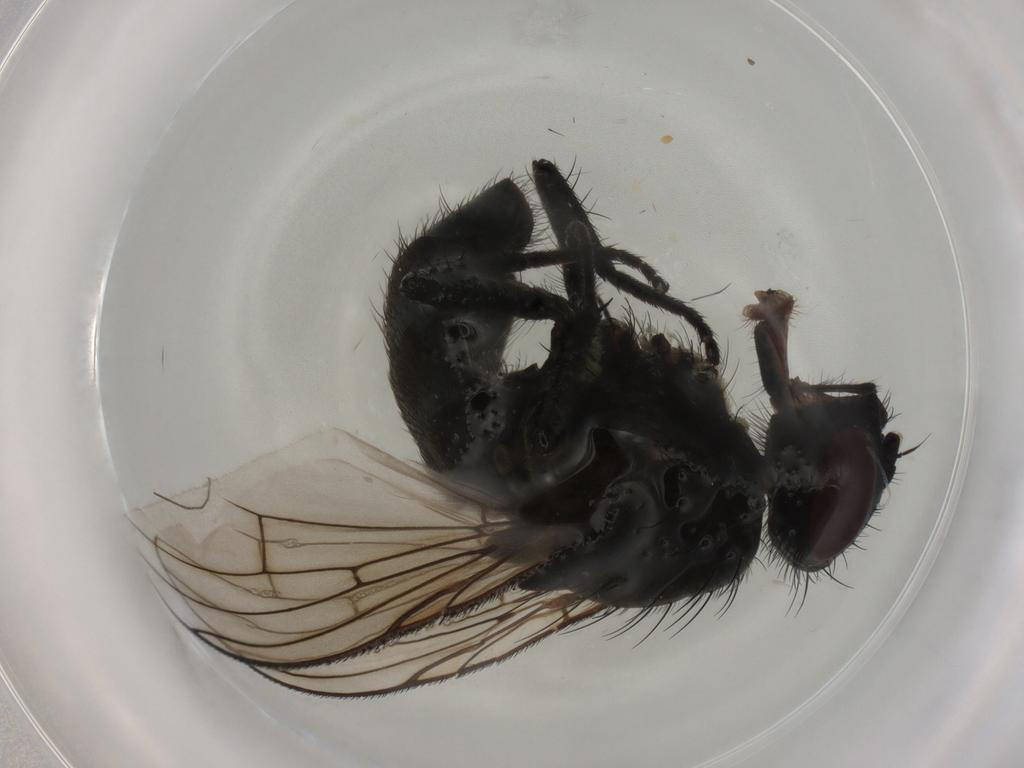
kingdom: Animalia
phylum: Arthropoda
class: Insecta
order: Diptera
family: Muscidae
